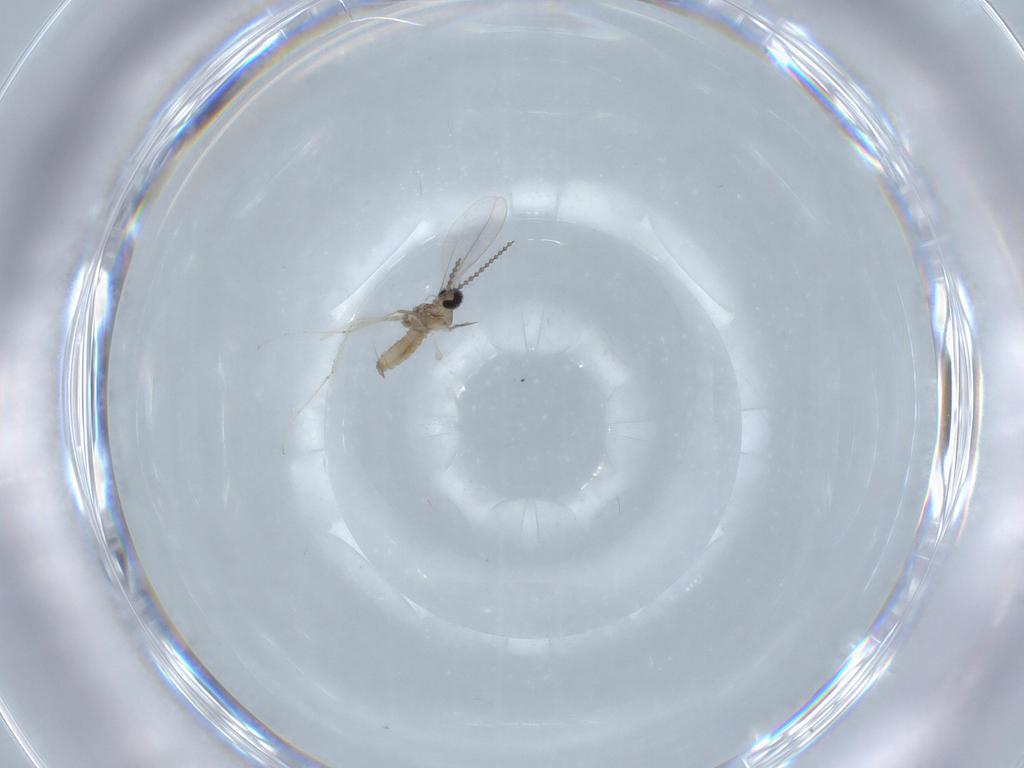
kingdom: Animalia
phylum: Arthropoda
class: Insecta
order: Diptera
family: Cecidomyiidae
